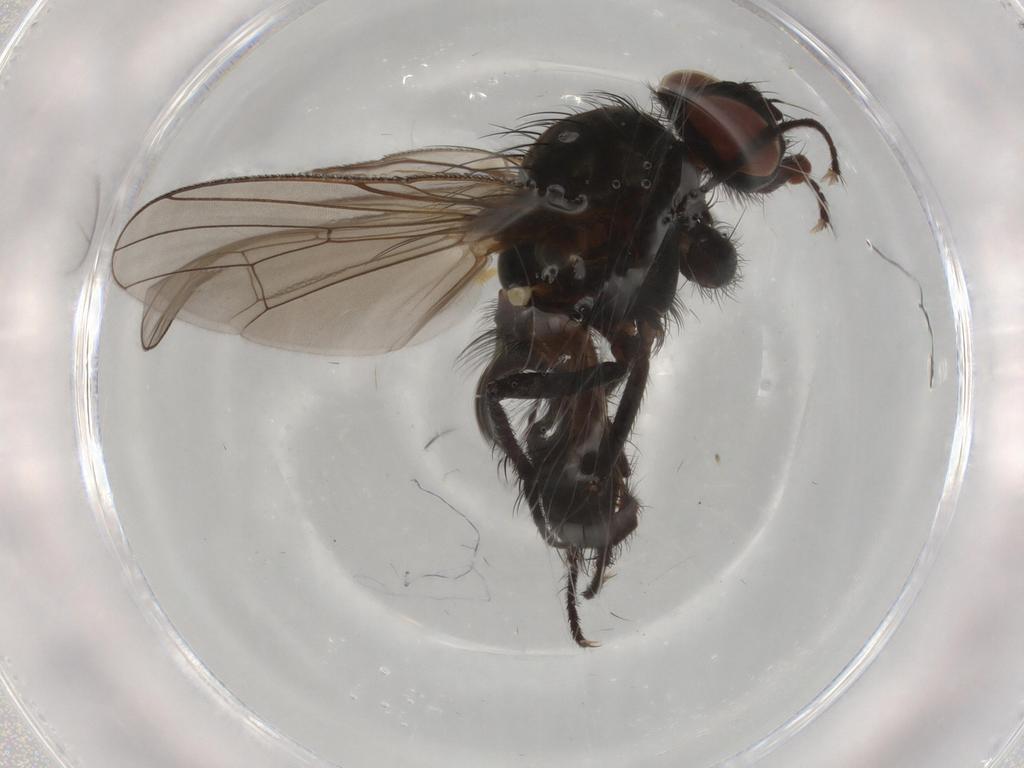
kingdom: Animalia
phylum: Arthropoda
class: Insecta
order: Diptera
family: Anthomyiidae
